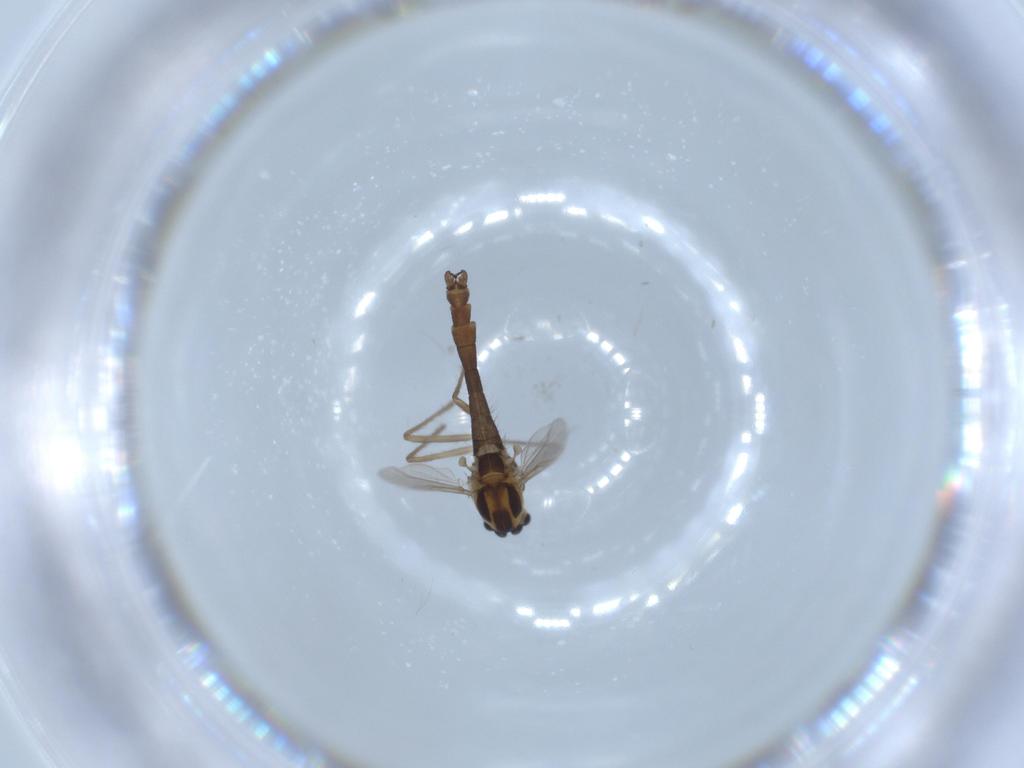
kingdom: Animalia
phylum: Arthropoda
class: Insecta
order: Diptera
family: Chironomidae
